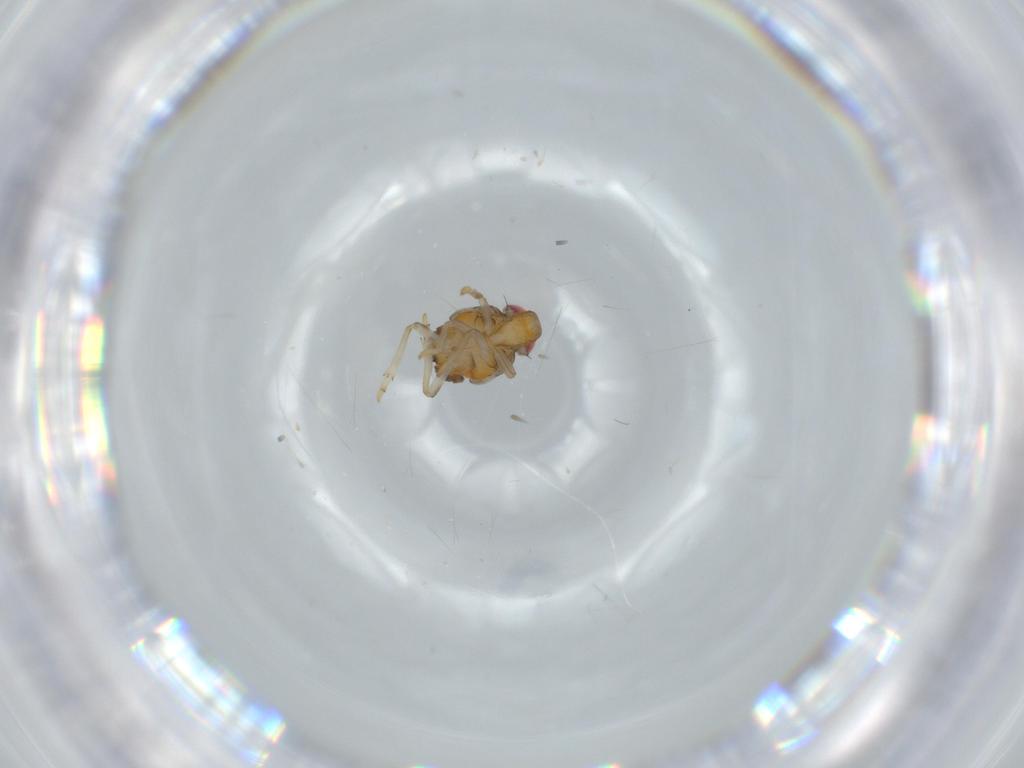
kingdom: Animalia
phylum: Arthropoda
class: Insecta
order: Hemiptera
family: Issidae
